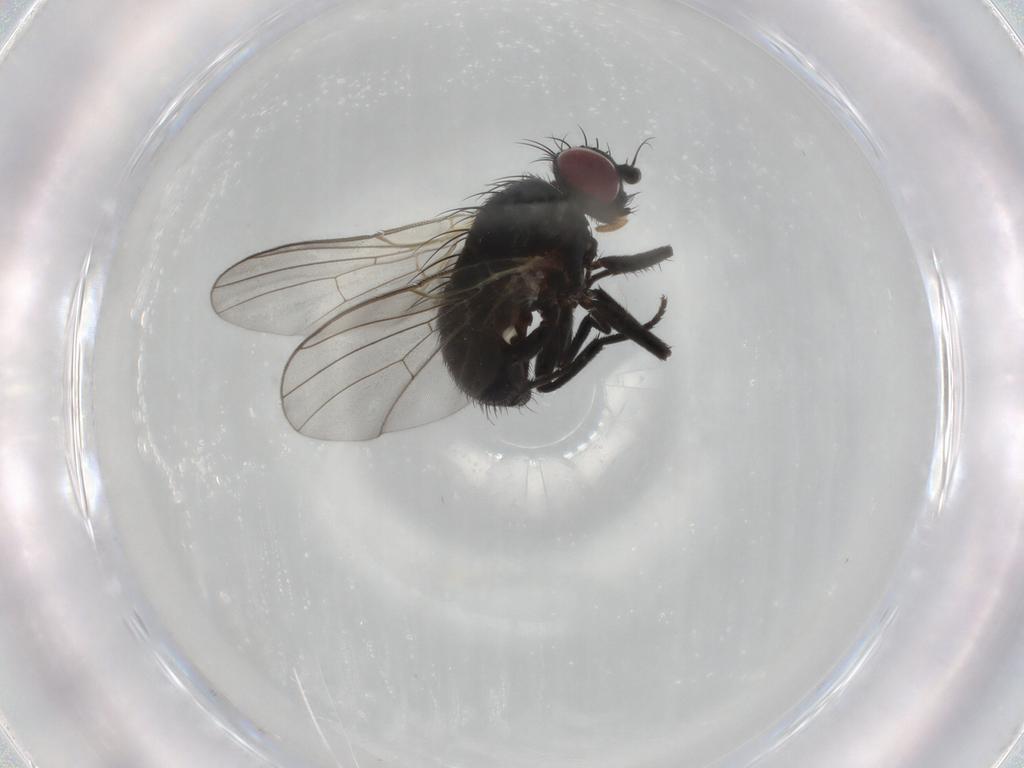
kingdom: Animalia
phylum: Arthropoda
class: Insecta
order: Diptera
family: Agromyzidae
